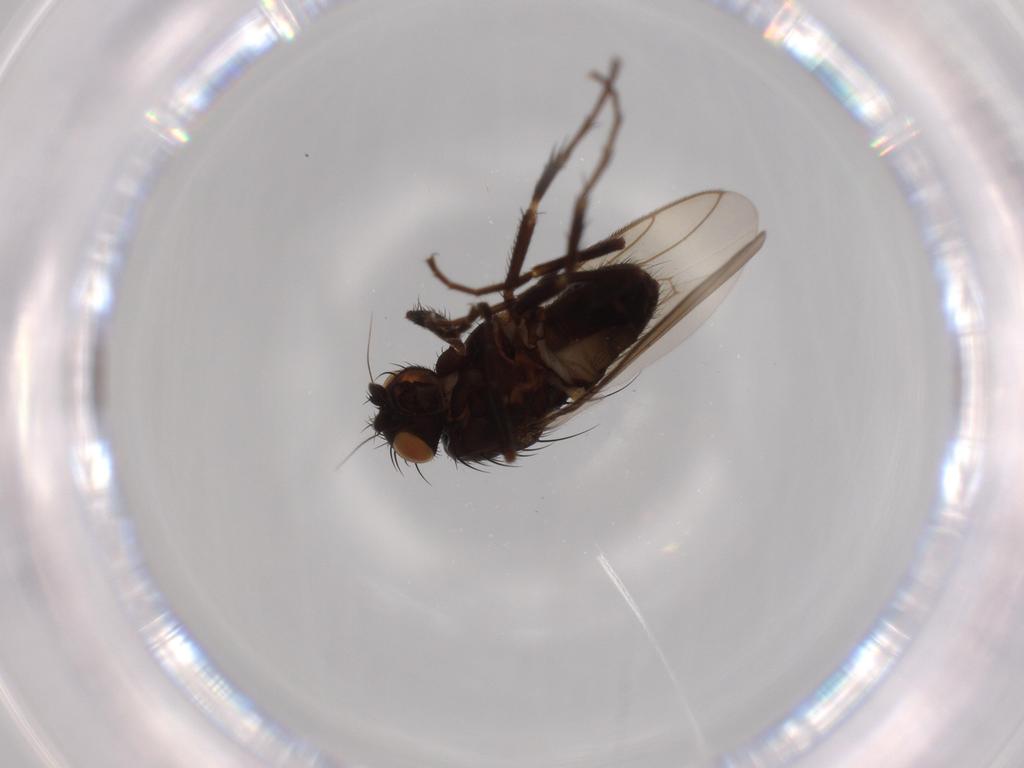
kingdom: Animalia
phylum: Arthropoda
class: Insecta
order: Diptera
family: Sphaeroceridae
